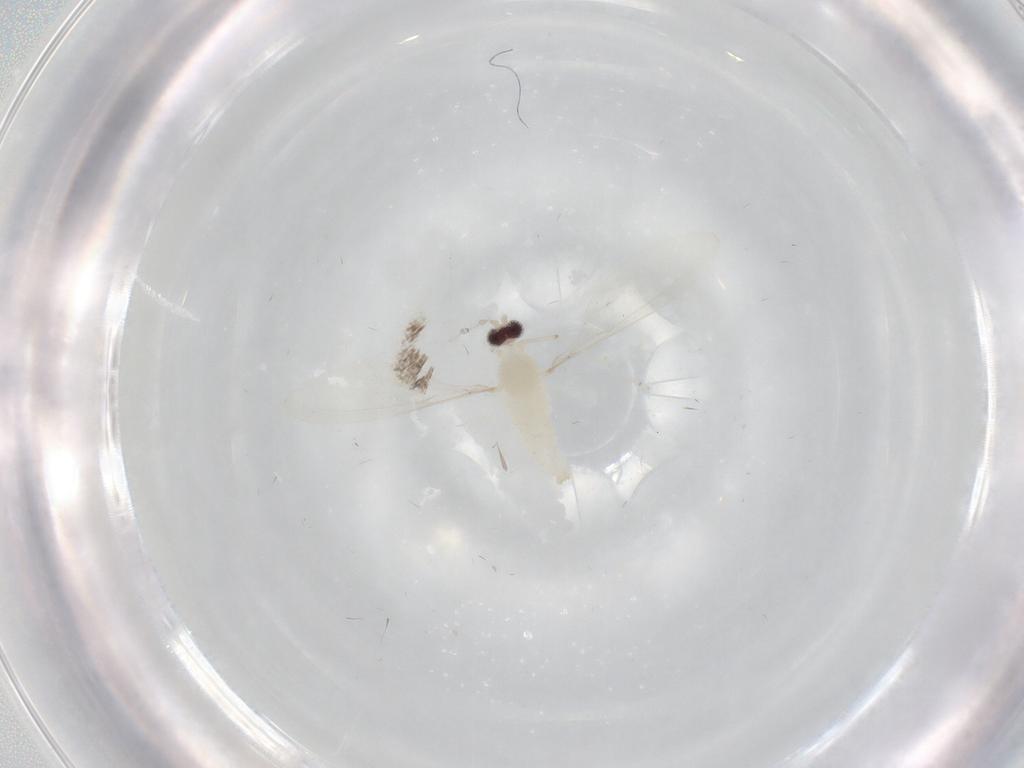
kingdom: Animalia
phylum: Arthropoda
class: Insecta
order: Diptera
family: Cecidomyiidae
